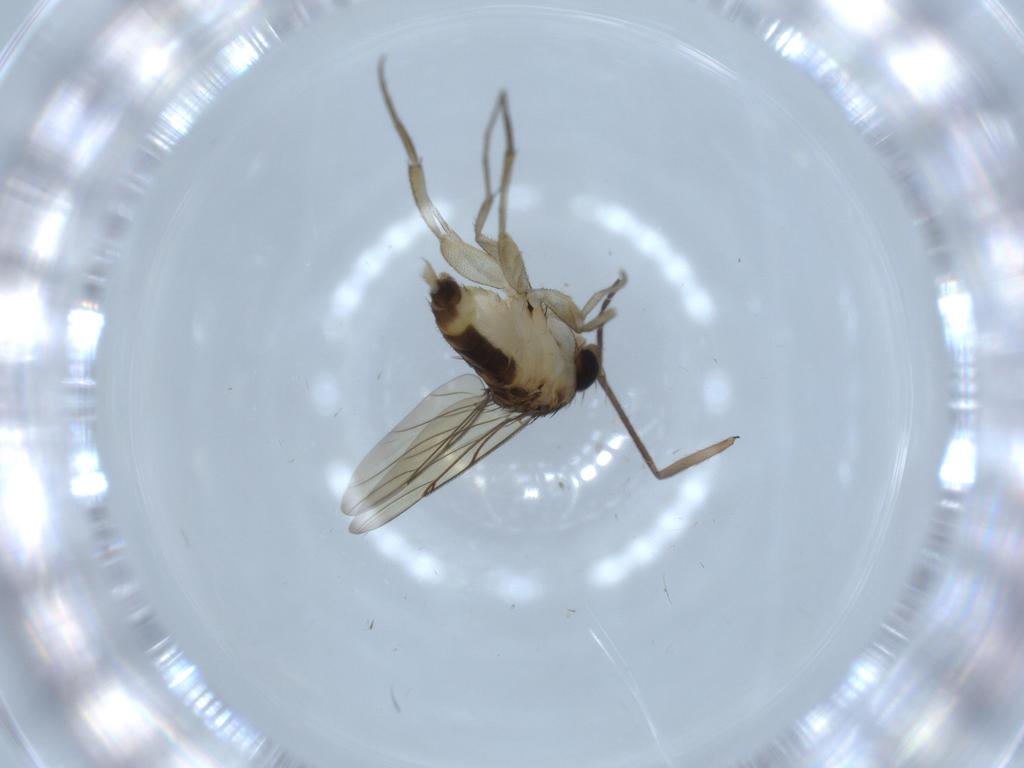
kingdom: Animalia
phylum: Arthropoda
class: Insecta
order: Diptera
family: Phoridae
